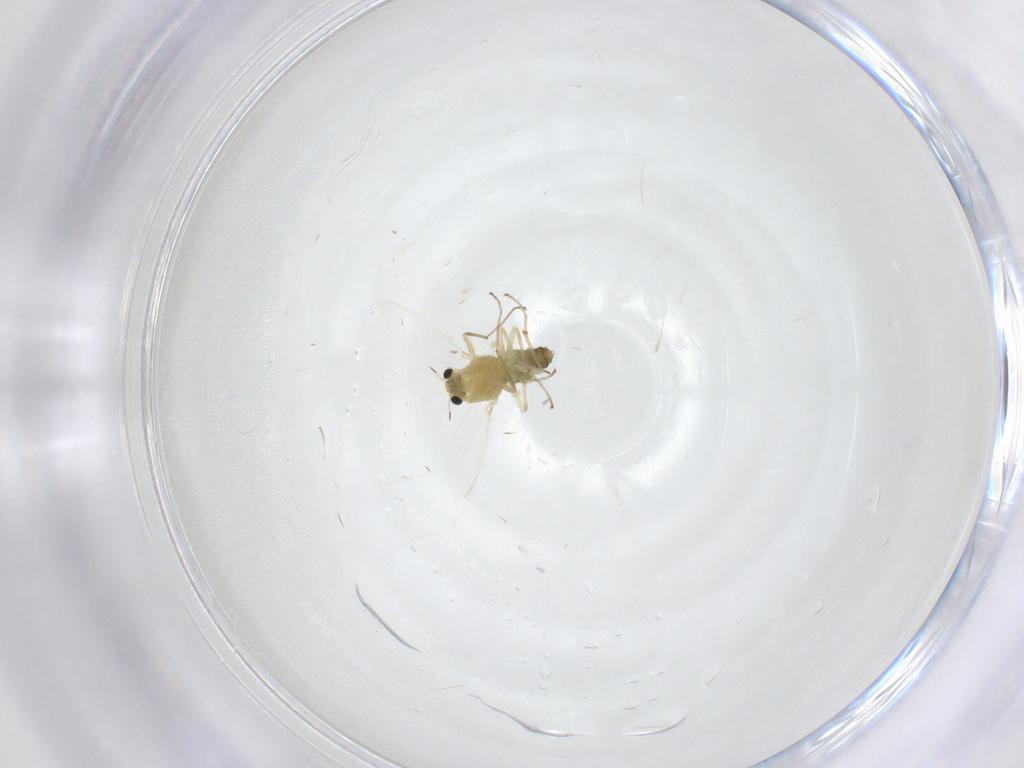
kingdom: Animalia
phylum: Arthropoda
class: Insecta
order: Diptera
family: Chironomidae
